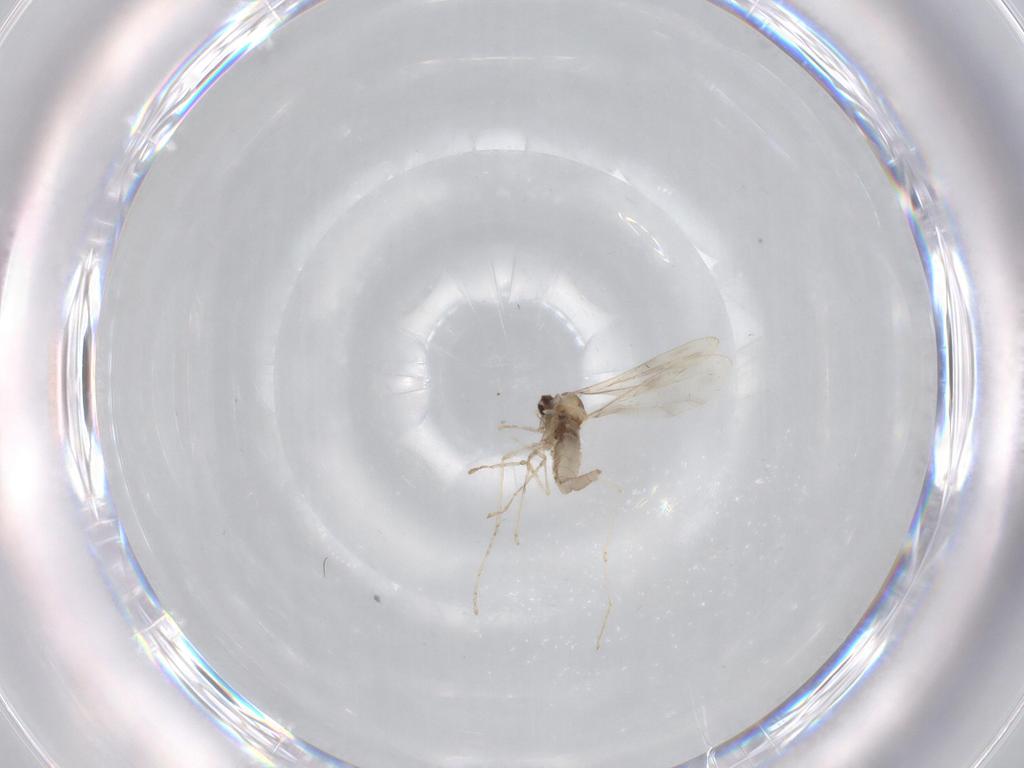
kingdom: Animalia
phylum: Arthropoda
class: Insecta
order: Diptera
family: Cecidomyiidae
